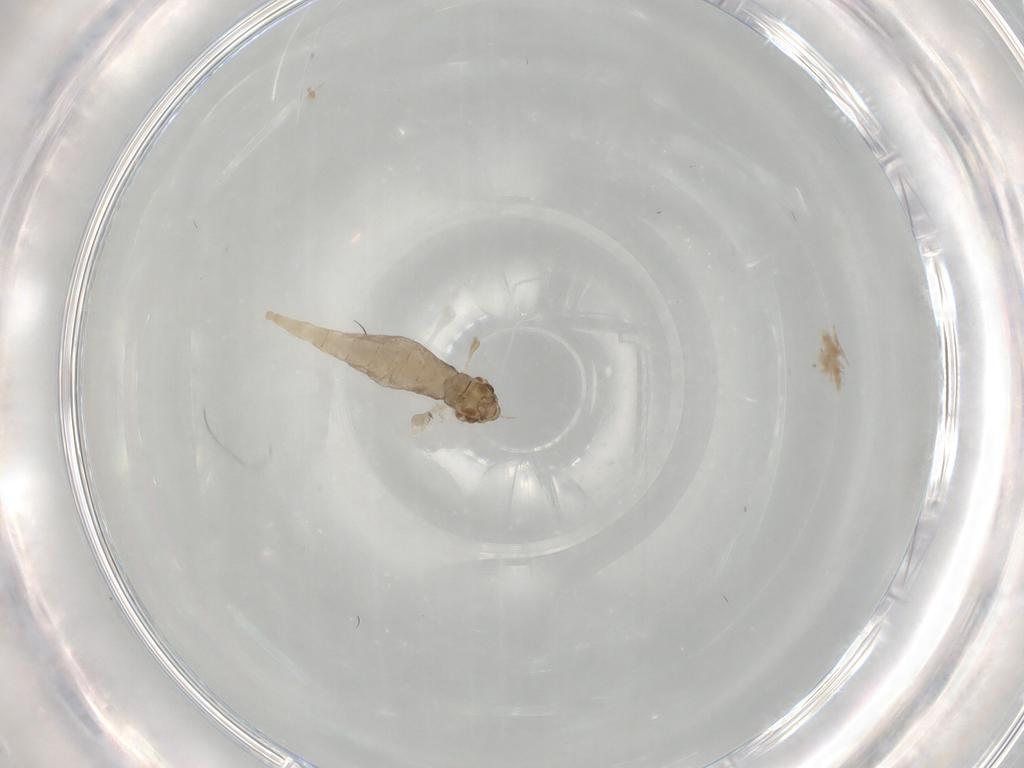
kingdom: Animalia
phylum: Arthropoda
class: Insecta
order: Diptera
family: Cecidomyiidae
